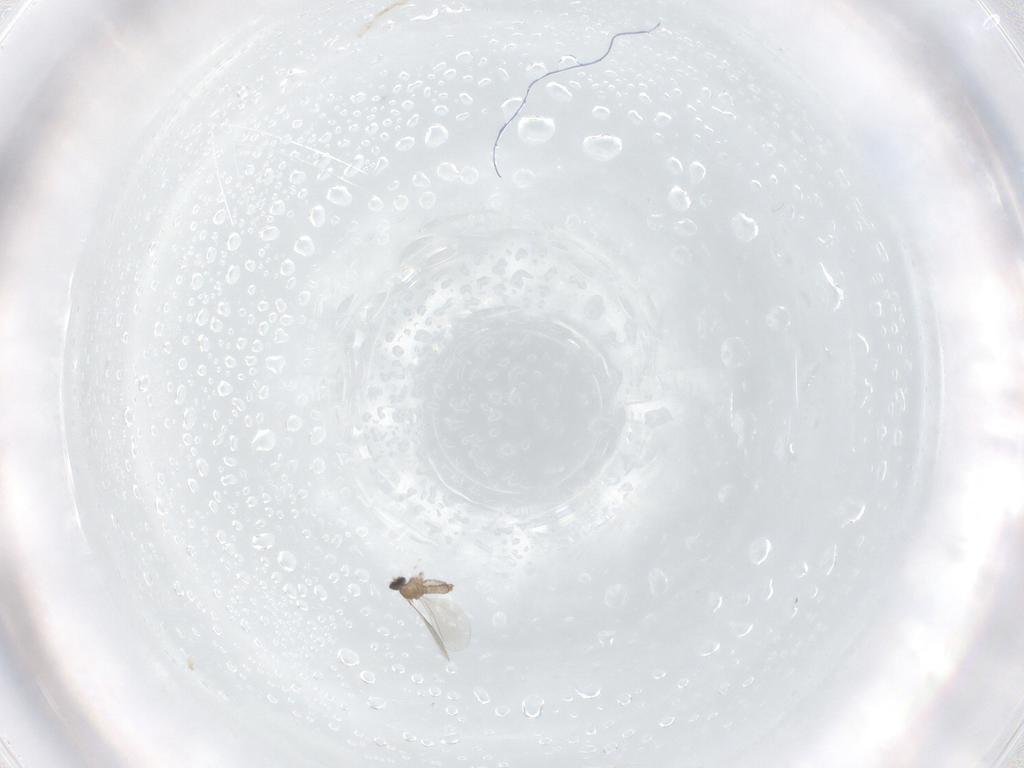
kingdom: Animalia
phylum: Arthropoda
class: Insecta
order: Diptera
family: Cecidomyiidae
